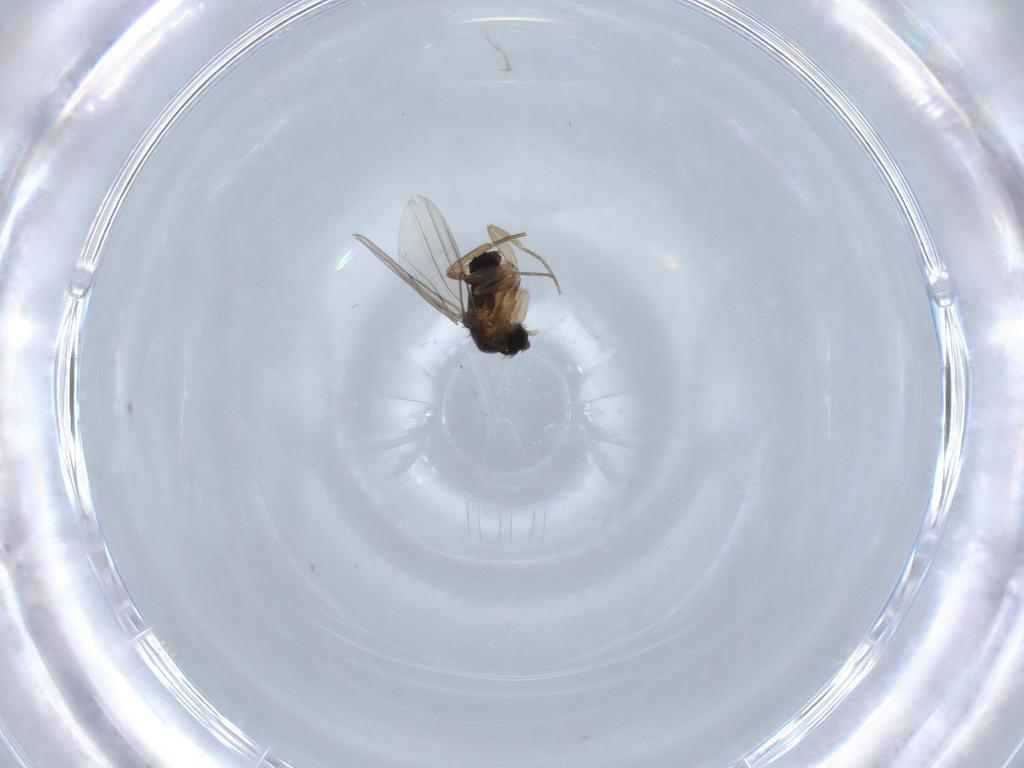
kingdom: Animalia
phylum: Arthropoda
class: Insecta
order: Diptera
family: Phoridae
